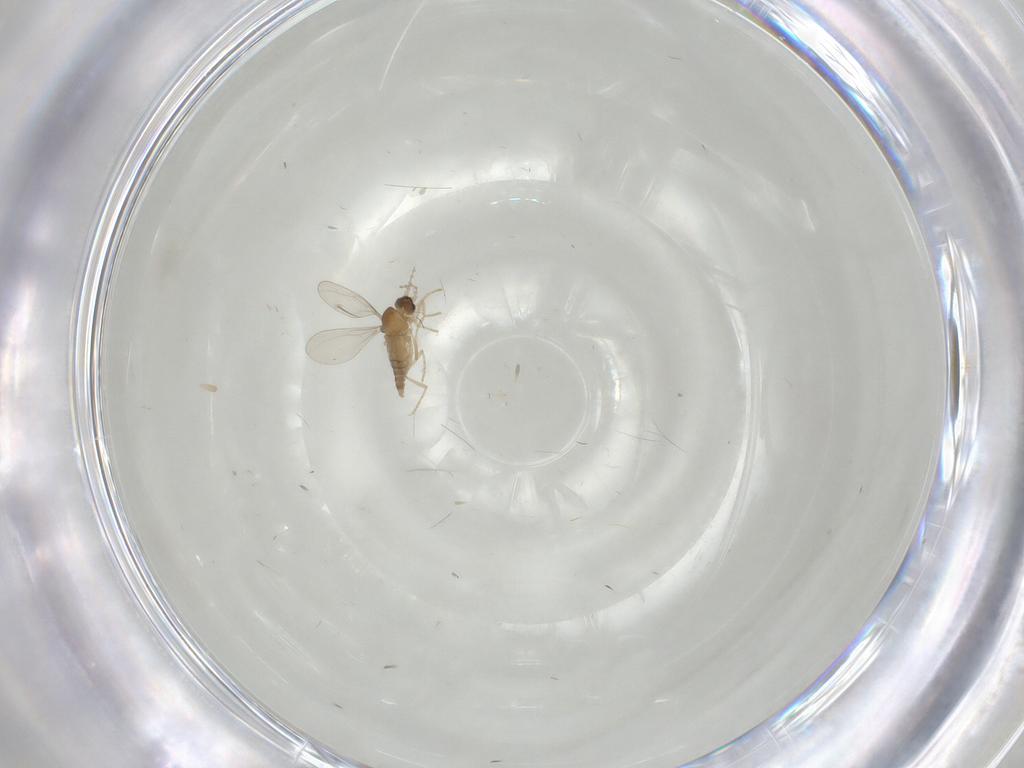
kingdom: Animalia
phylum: Arthropoda
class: Insecta
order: Diptera
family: Cecidomyiidae
